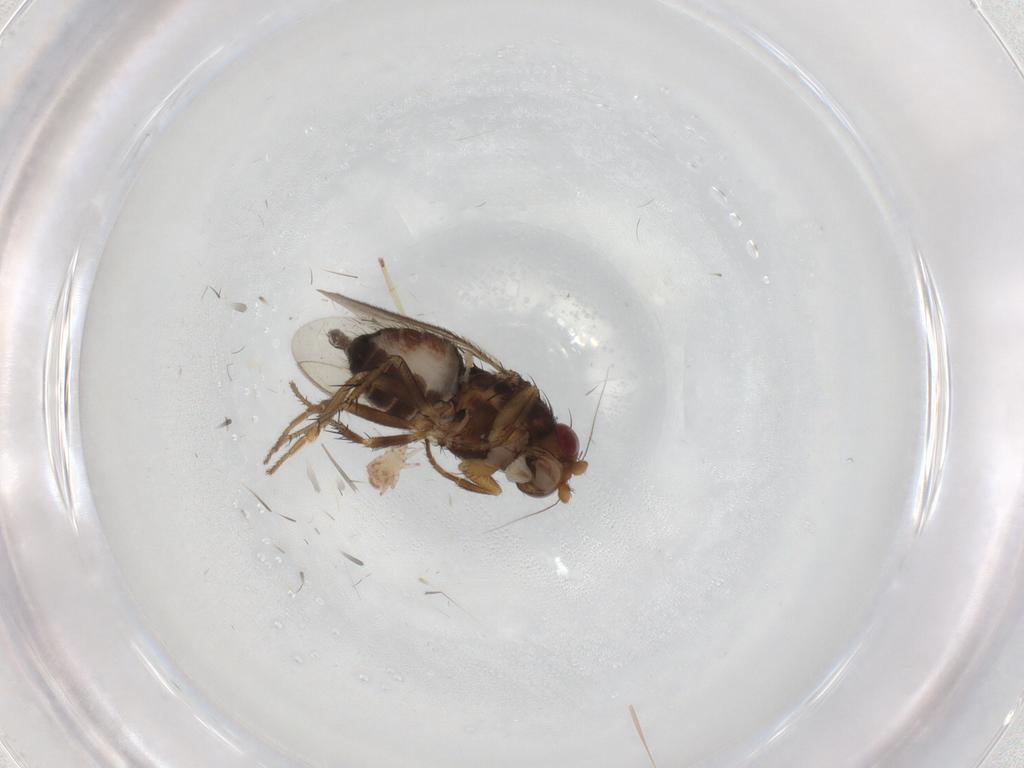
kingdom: Animalia
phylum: Arthropoda
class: Insecta
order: Diptera
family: Sphaeroceridae
